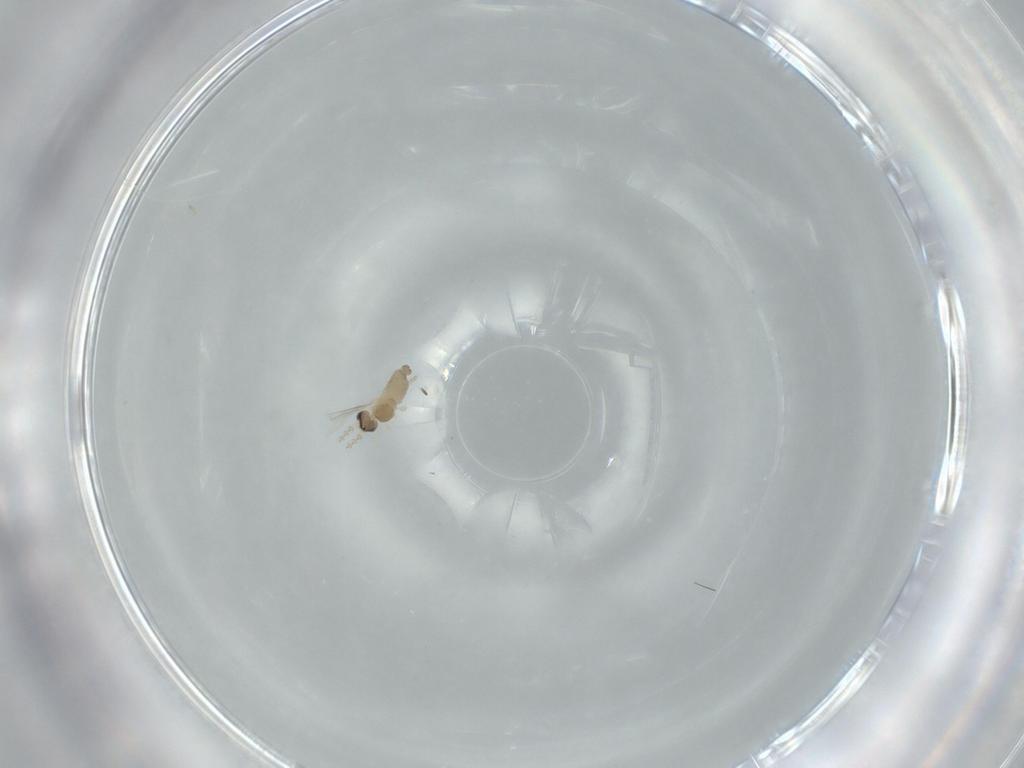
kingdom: Animalia
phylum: Arthropoda
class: Insecta
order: Diptera
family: Cecidomyiidae
